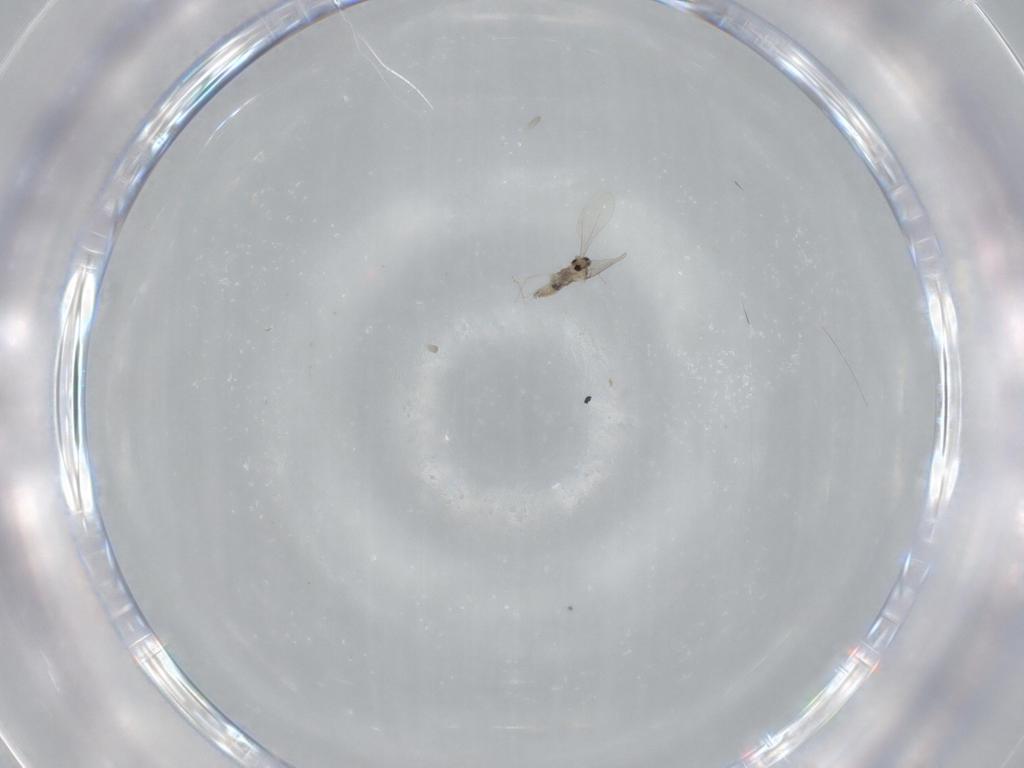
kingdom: Animalia
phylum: Arthropoda
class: Insecta
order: Diptera
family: Cecidomyiidae
